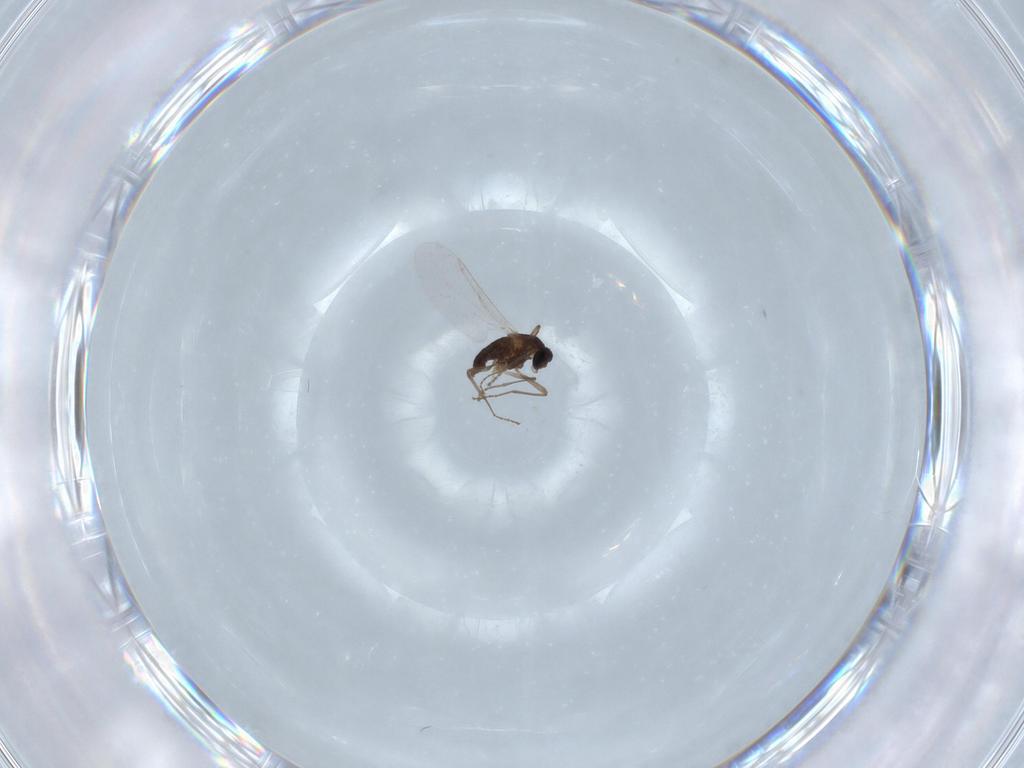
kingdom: Animalia
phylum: Arthropoda
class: Insecta
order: Diptera
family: Cecidomyiidae
